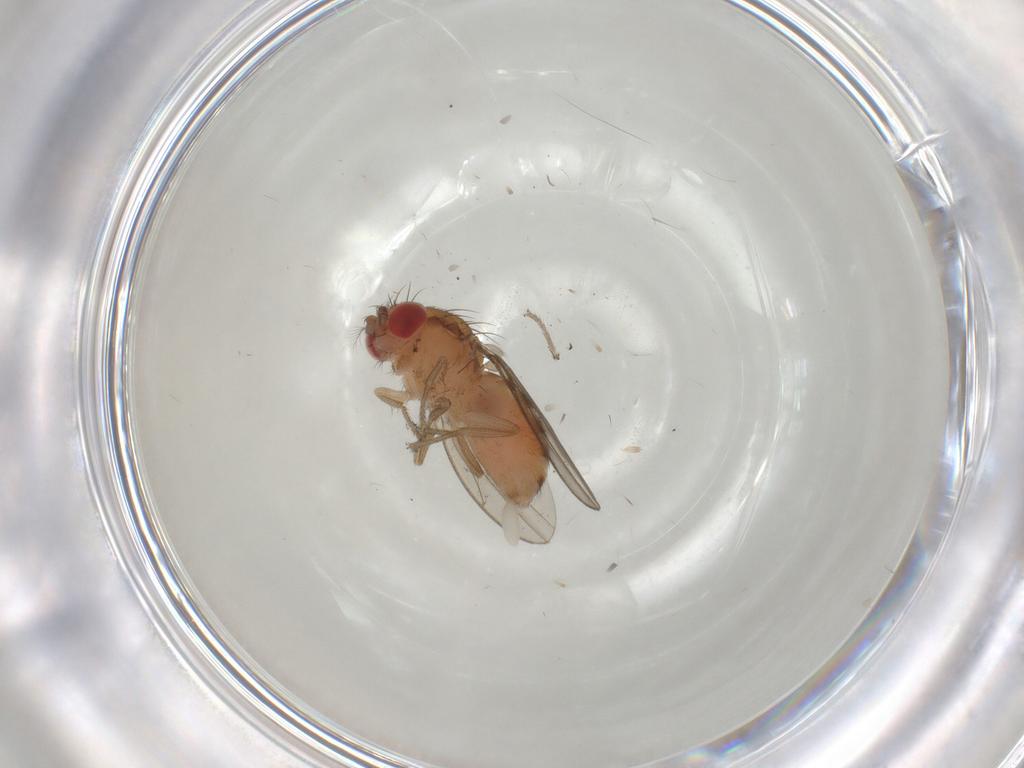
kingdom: Animalia
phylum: Arthropoda
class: Insecta
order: Diptera
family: Drosophilidae
